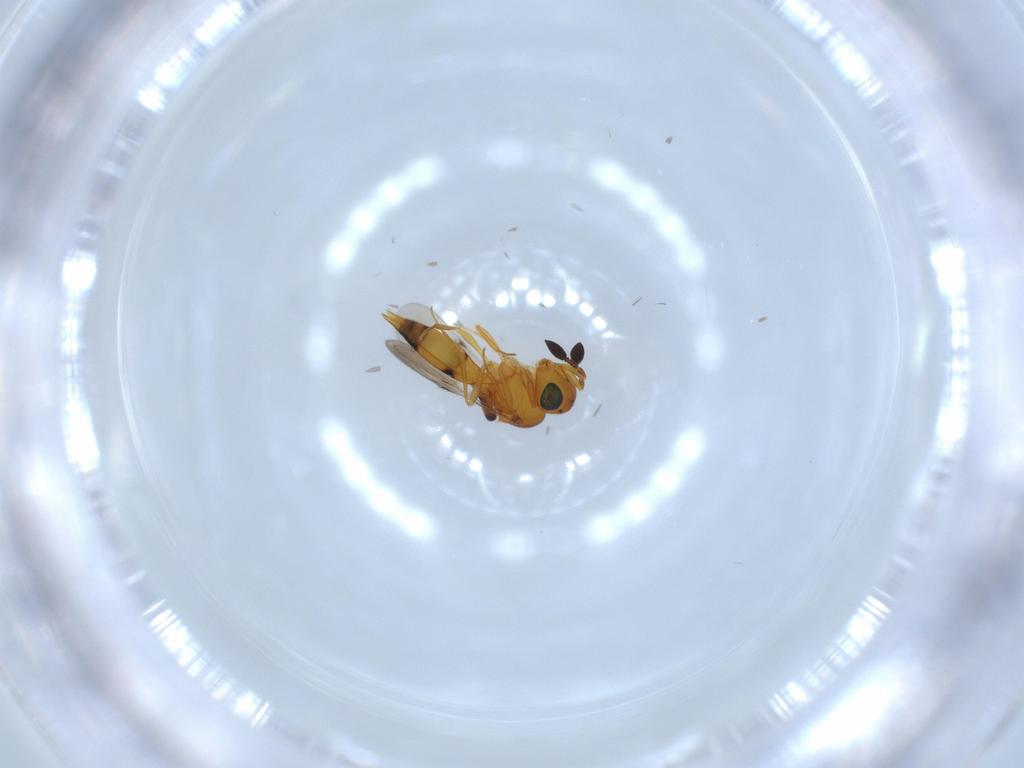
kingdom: Animalia
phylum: Arthropoda
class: Insecta
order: Hymenoptera
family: Scelionidae
